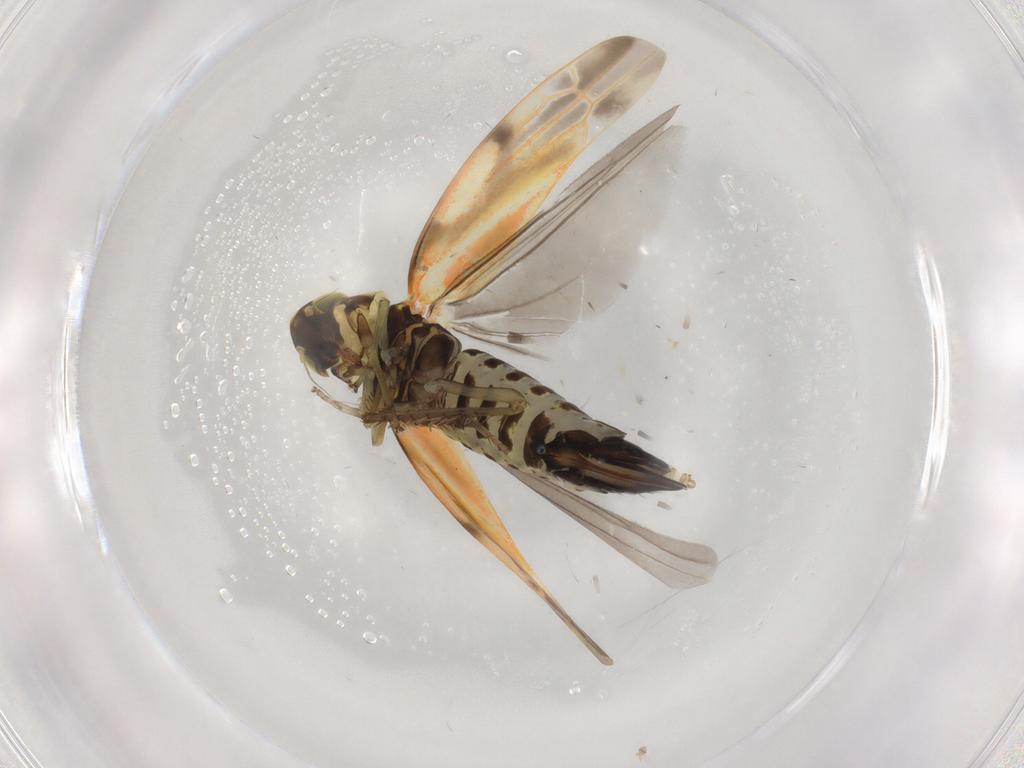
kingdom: Animalia
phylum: Arthropoda
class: Insecta
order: Hemiptera
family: Cicadellidae
